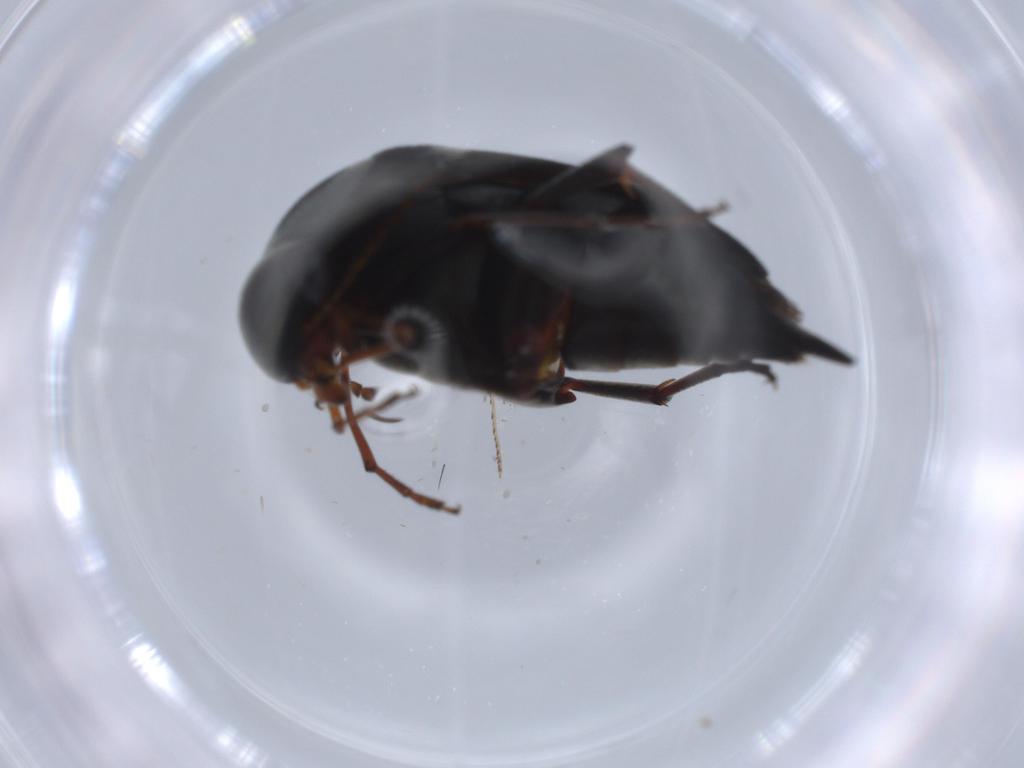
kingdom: Animalia
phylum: Arthropoda
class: Insecta
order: Coleoptera
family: Mordellidae
